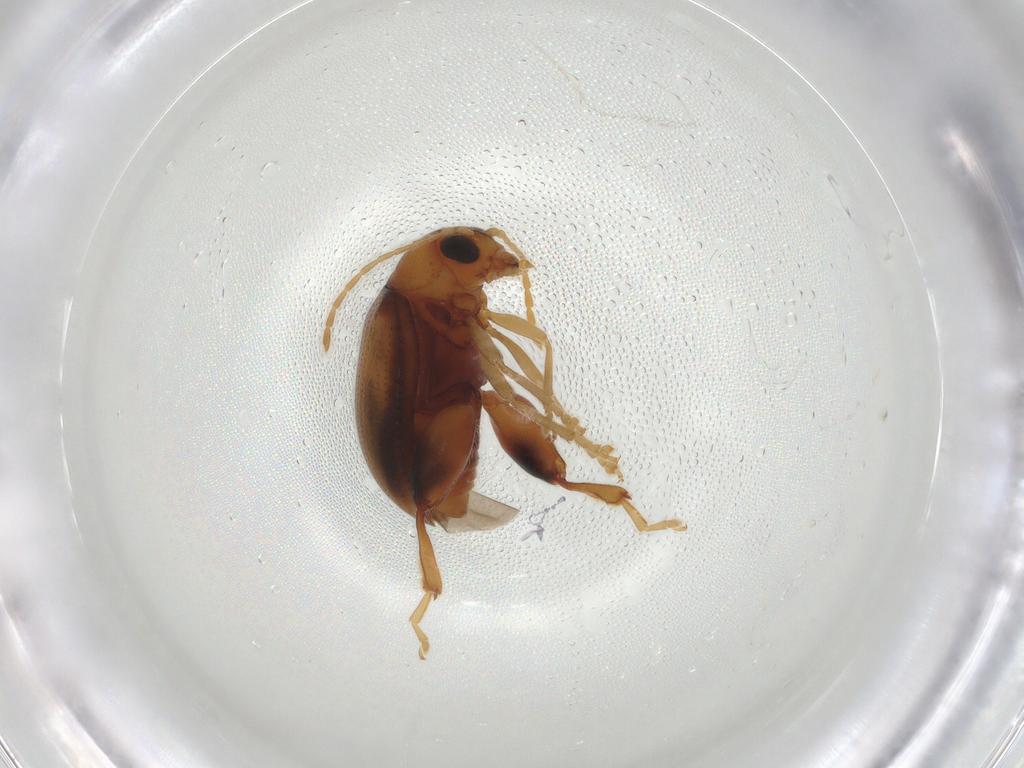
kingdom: Animalia
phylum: Arthropoda
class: Insecta
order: Coleoptera
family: Chrysomelidae
